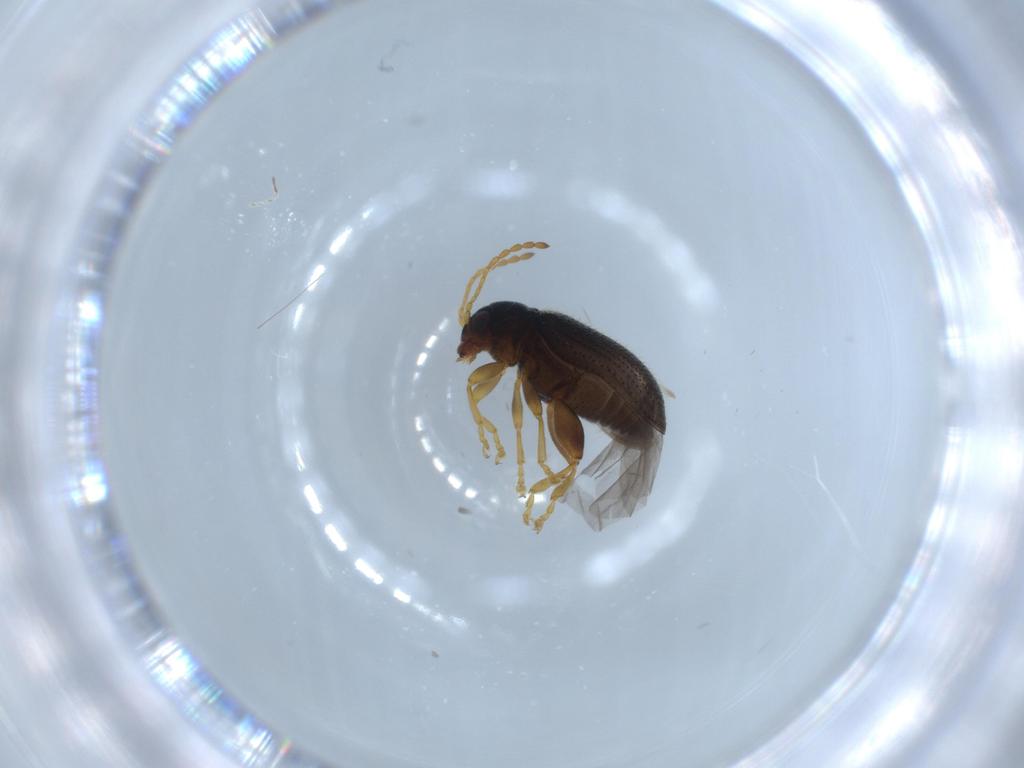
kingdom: Animalia
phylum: Arthropoda
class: Insecta
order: Coleoptera
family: Chrysomelidae
